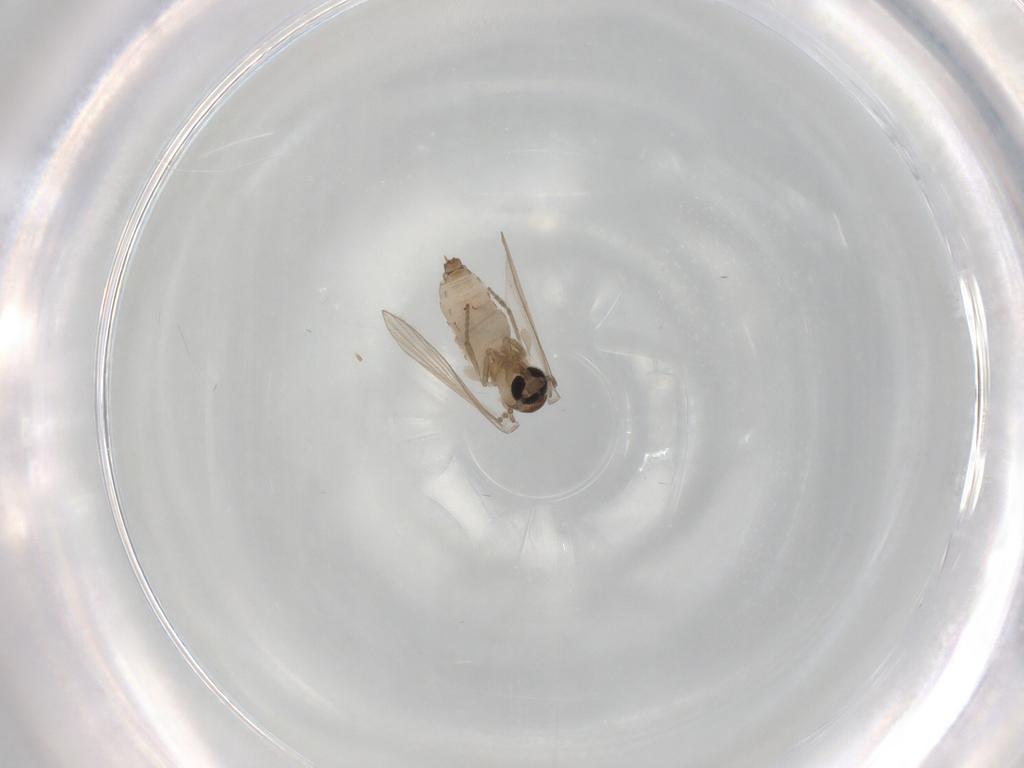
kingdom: Animalia
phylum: Arthropoda
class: Insecta
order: Diptera
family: Psychodidae
